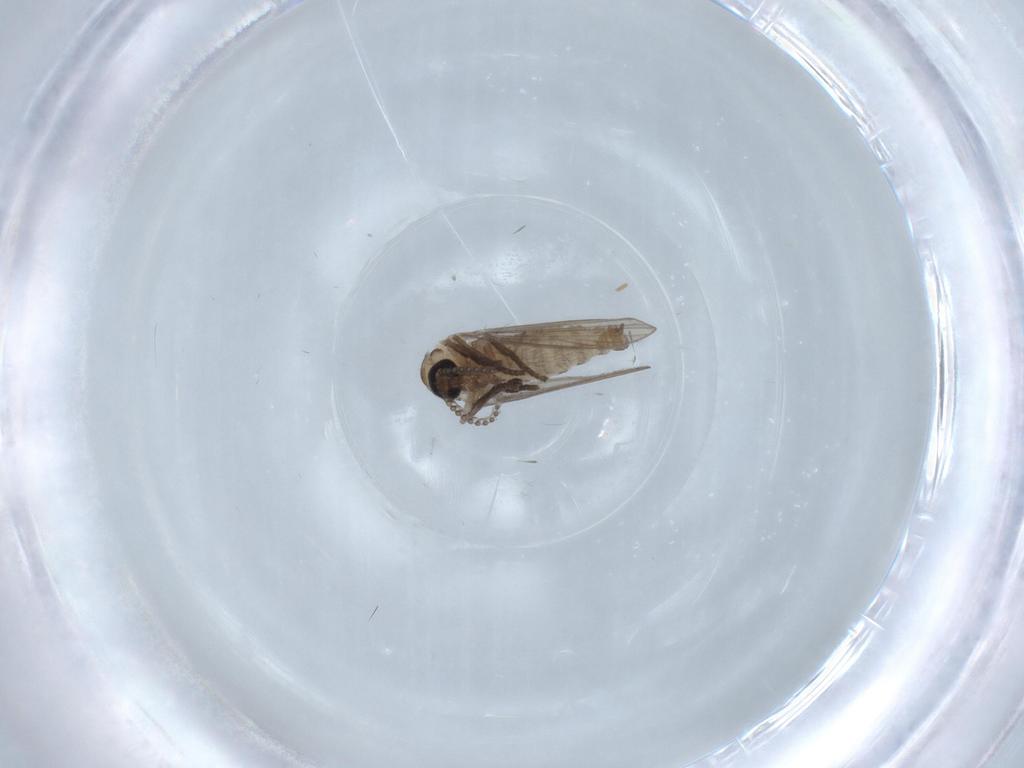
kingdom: Animalia
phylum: Arthropoda
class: Insecta
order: Diptera
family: Psychodidae
